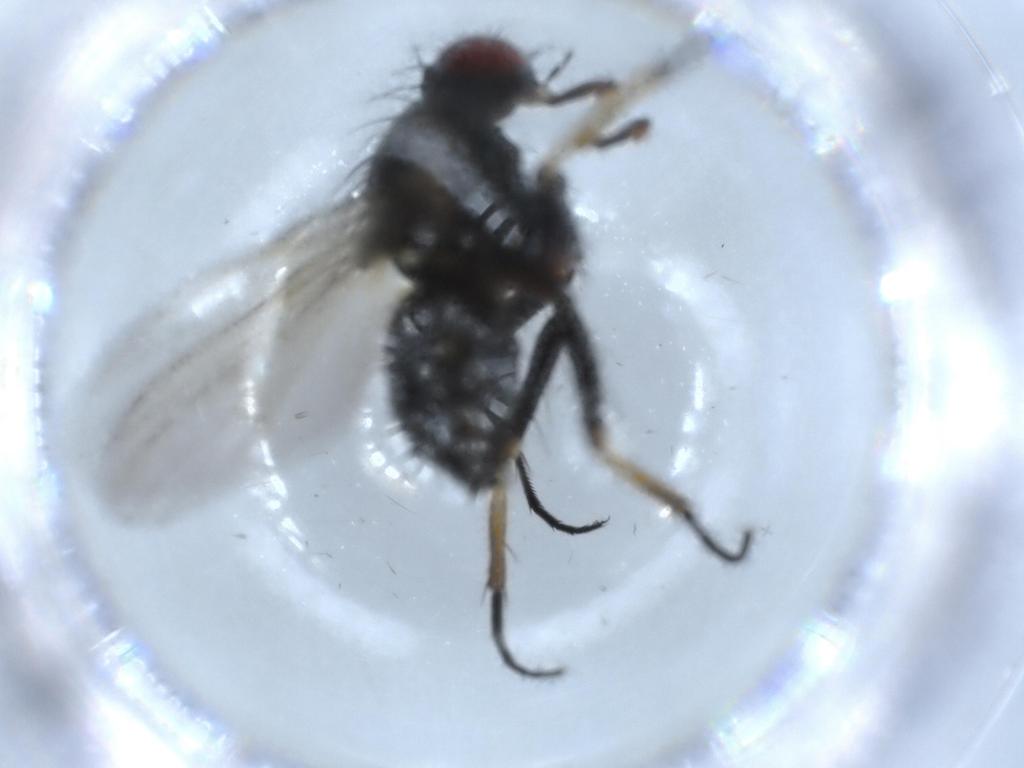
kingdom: Animalia
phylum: Arthropoda
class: Insecta
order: Diptera
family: Muscidae
